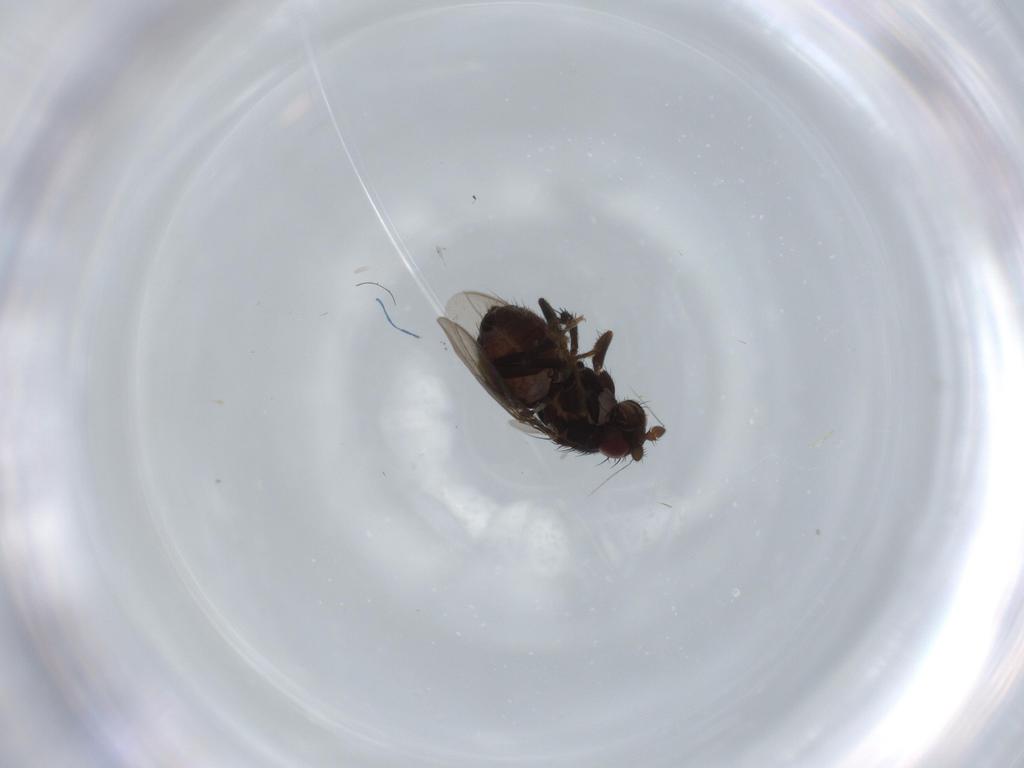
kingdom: Animalia
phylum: Arthropoda
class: Insecta
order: Diptera
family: Sphaeroceridae
